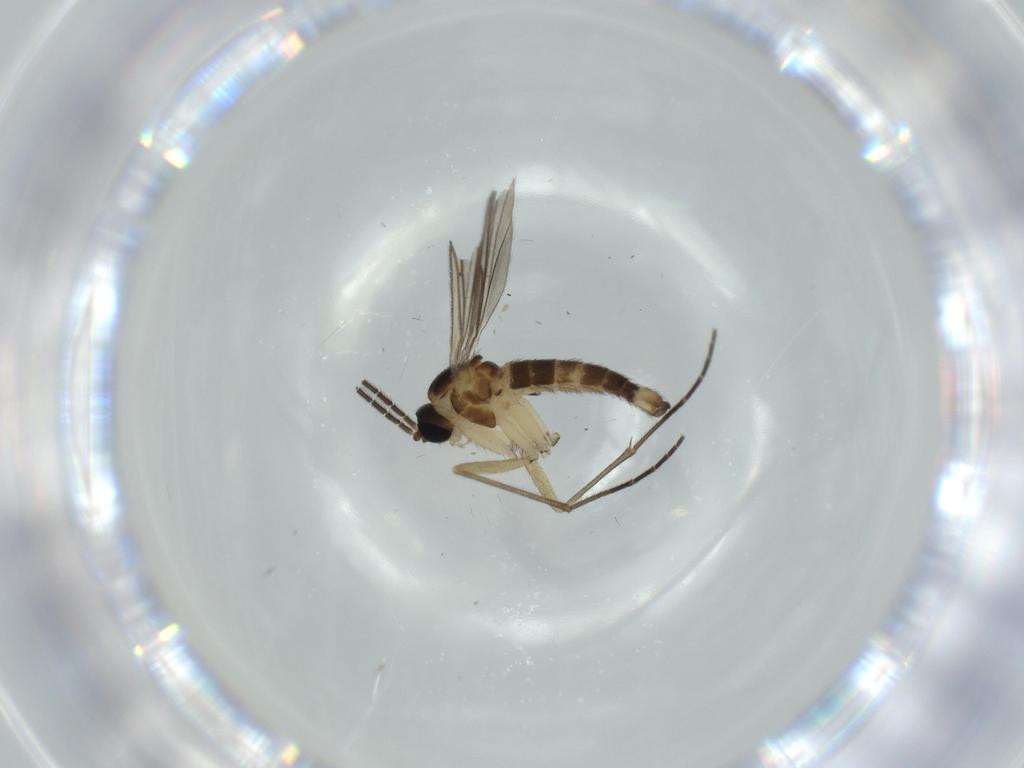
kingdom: Animalia
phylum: Arthropoda
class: Insecta
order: Diptera
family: Sciaridae
